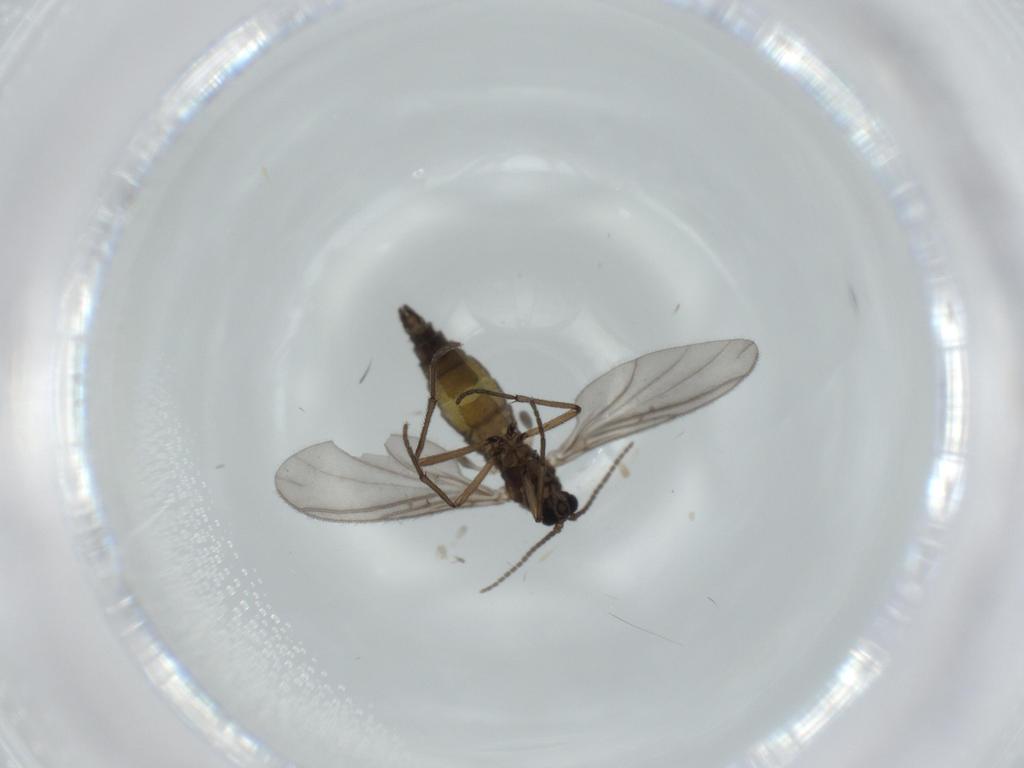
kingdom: Animalia
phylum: Arthropoda
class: Insecta
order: Diptera
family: Sciaridae
